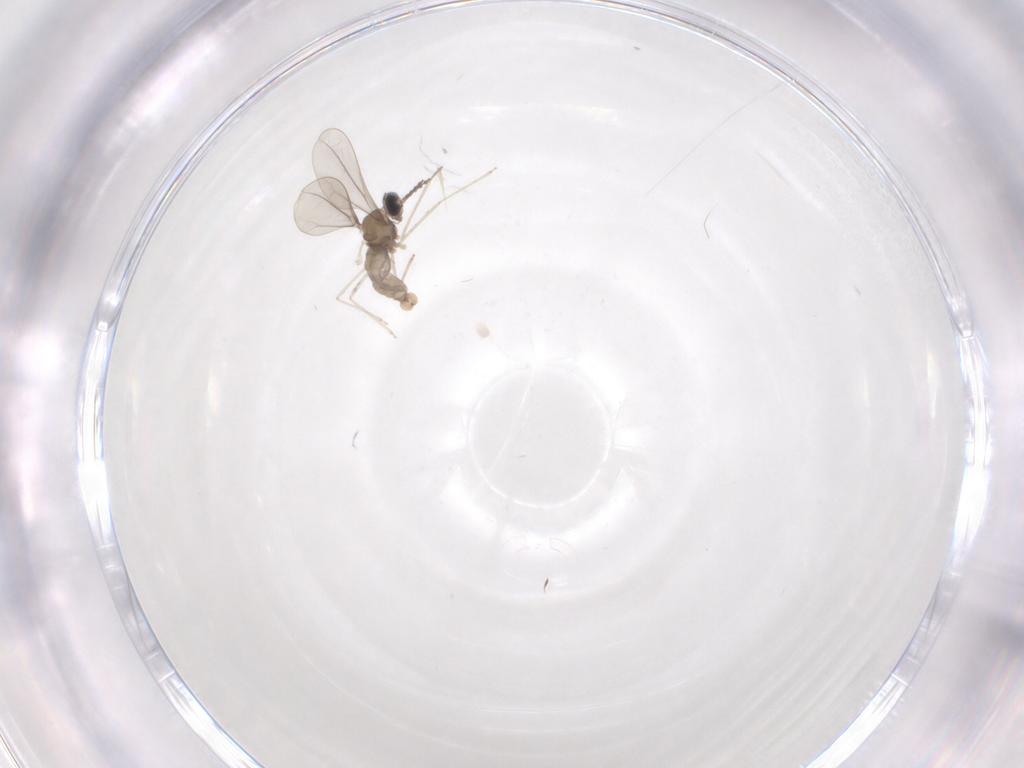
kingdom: Animalia
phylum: Arthropoda
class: Insecta
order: Diptera
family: Cecidomyiidae
